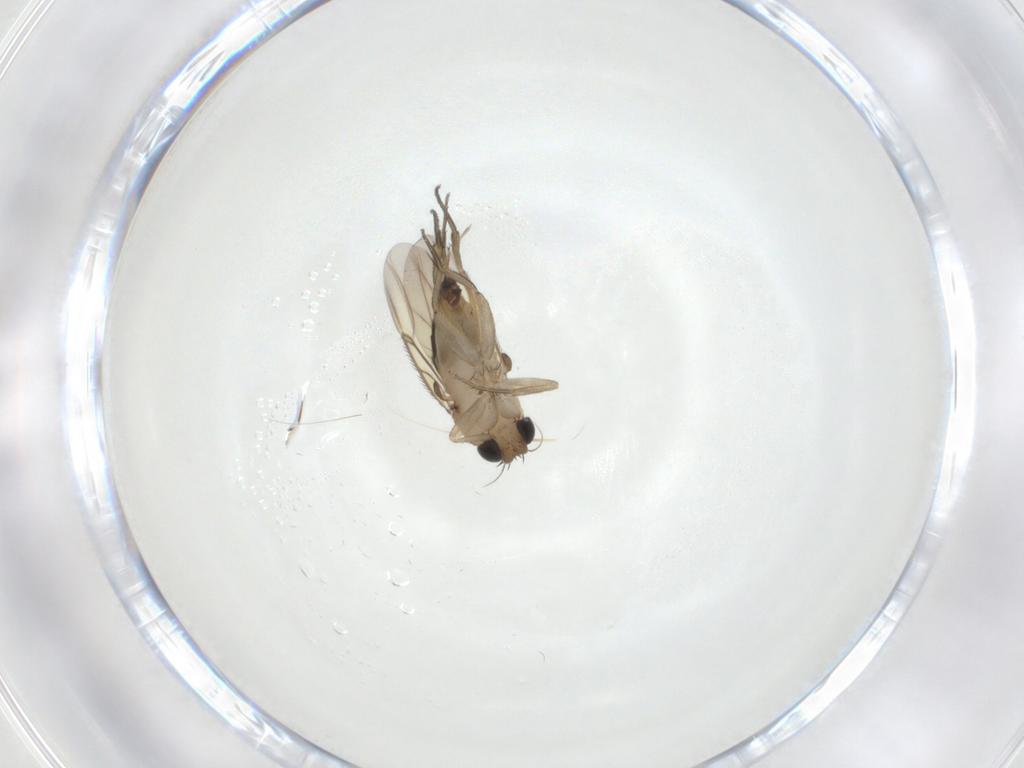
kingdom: Animalia
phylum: Arthropoda
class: Insecta
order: Diptera
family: Phoridae
